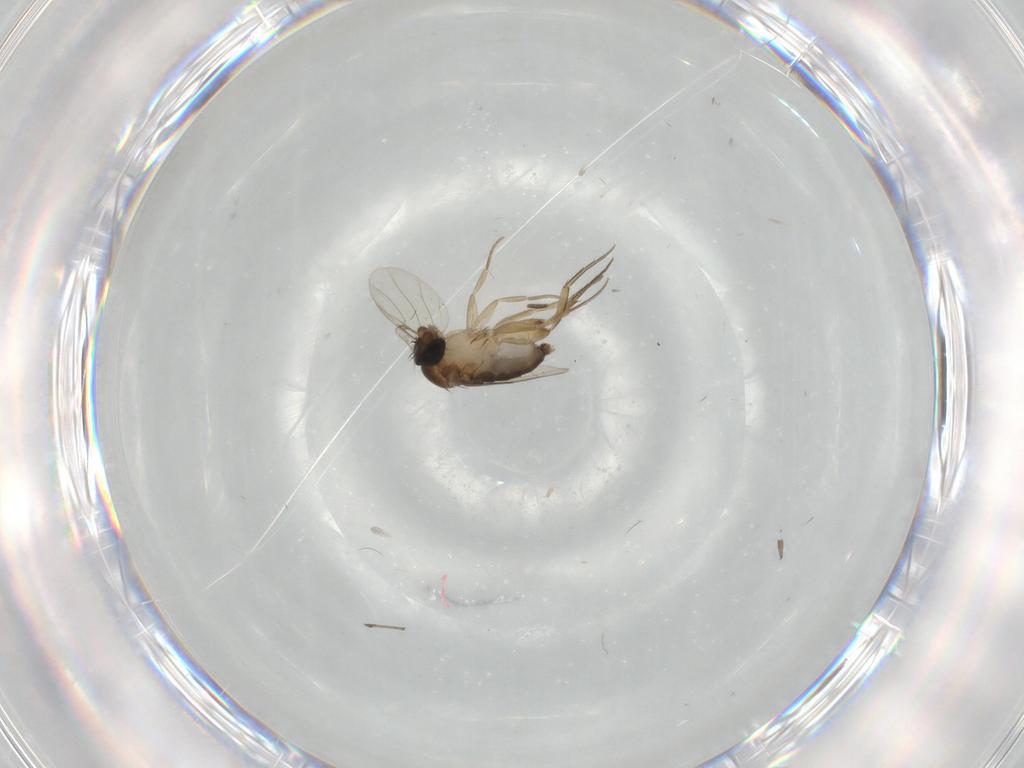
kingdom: Animalia
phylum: Arthropoda
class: Insecta
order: Diptera
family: Phoridae
